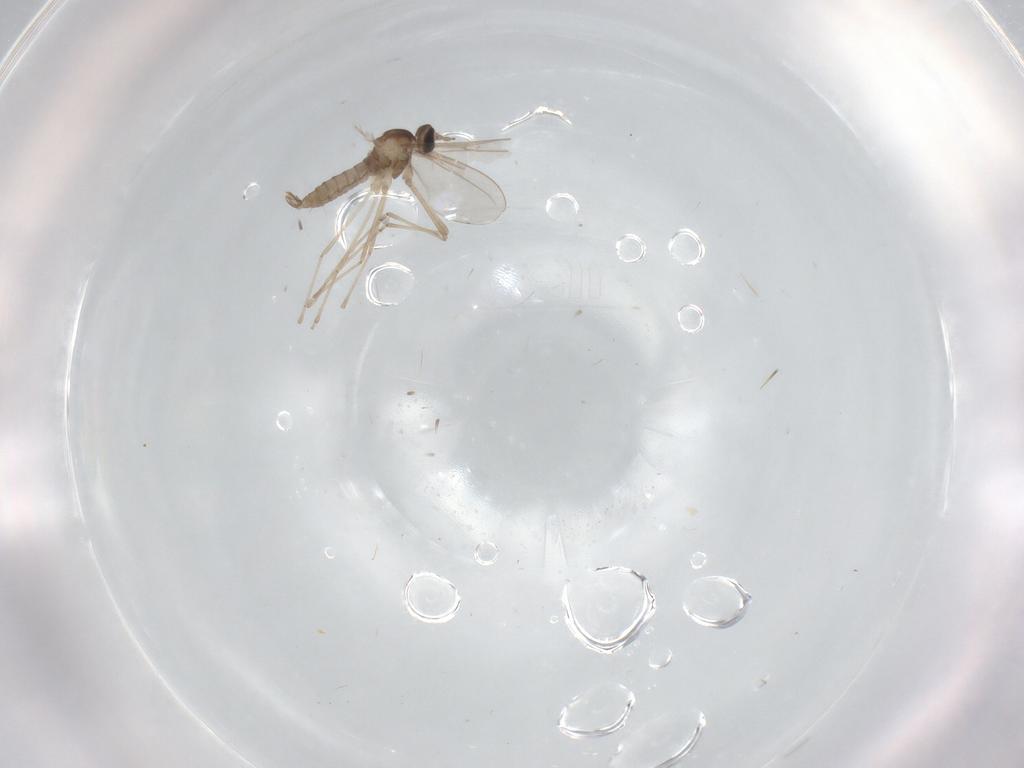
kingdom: Animalia
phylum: Arthropoda
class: Insecta
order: Diptera
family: Cecidomyiidae
